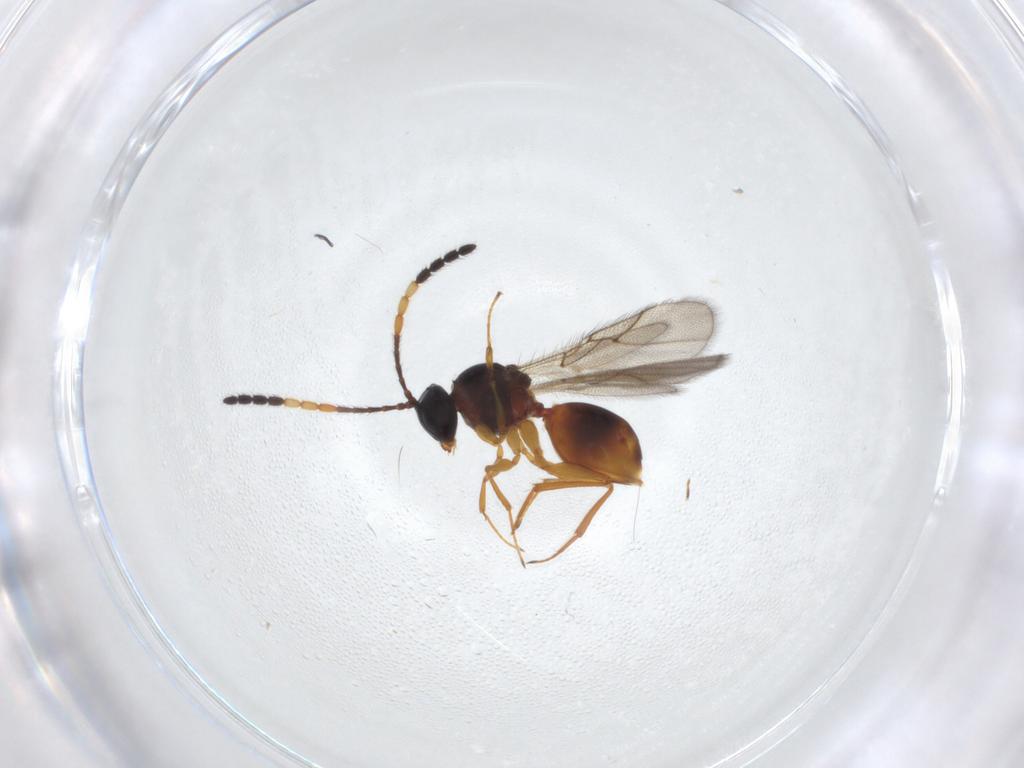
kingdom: Animalia
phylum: Arthropoda
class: Insecta
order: Hymenoptera
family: Figitidae
